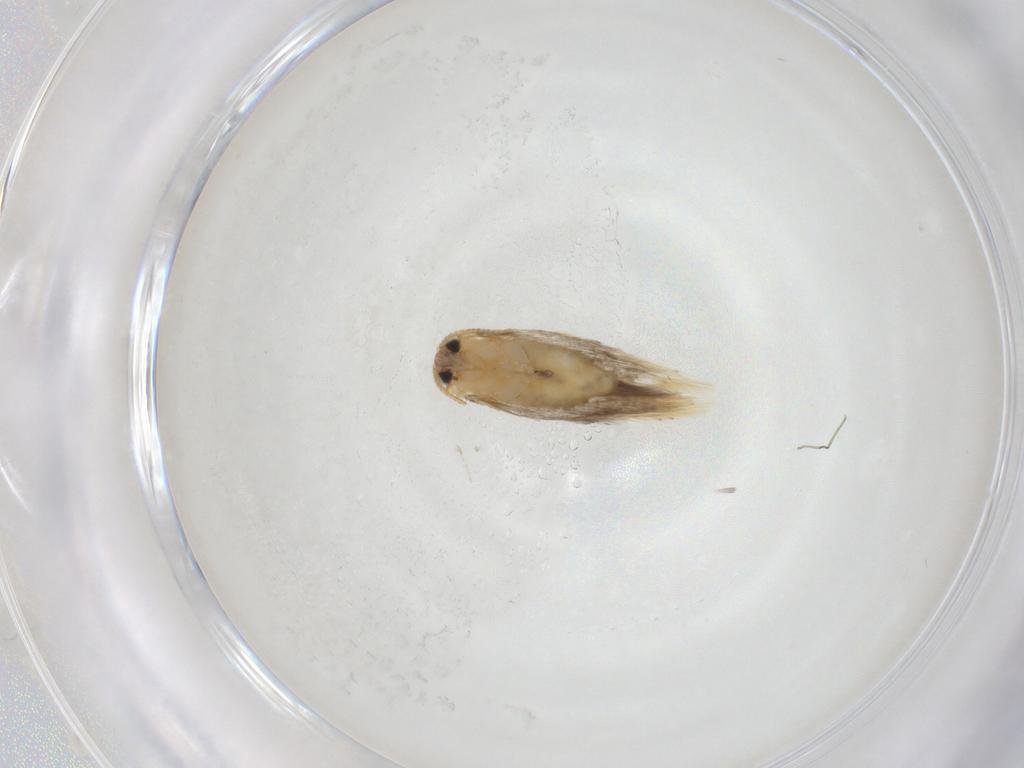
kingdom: Animalia
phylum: Arthropoda
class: Insecta
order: Lepidoptera
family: Nepticulidae
